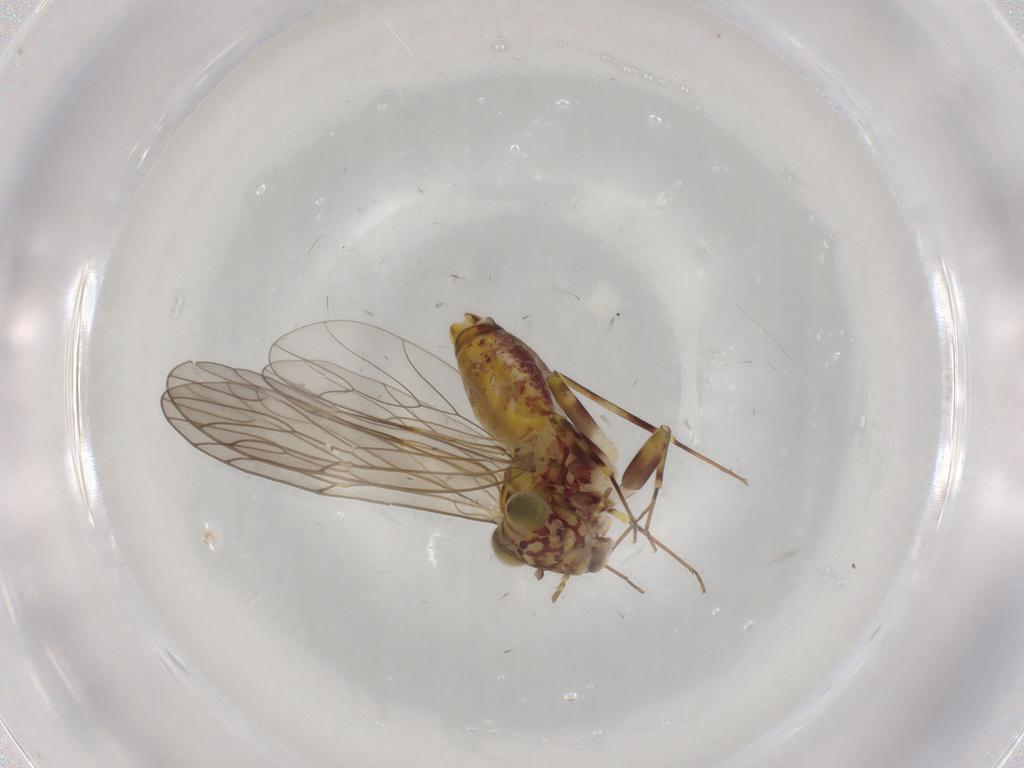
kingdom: Animalia
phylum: Arthropoda
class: Insecta
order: Psocodea
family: Philotarsidae
